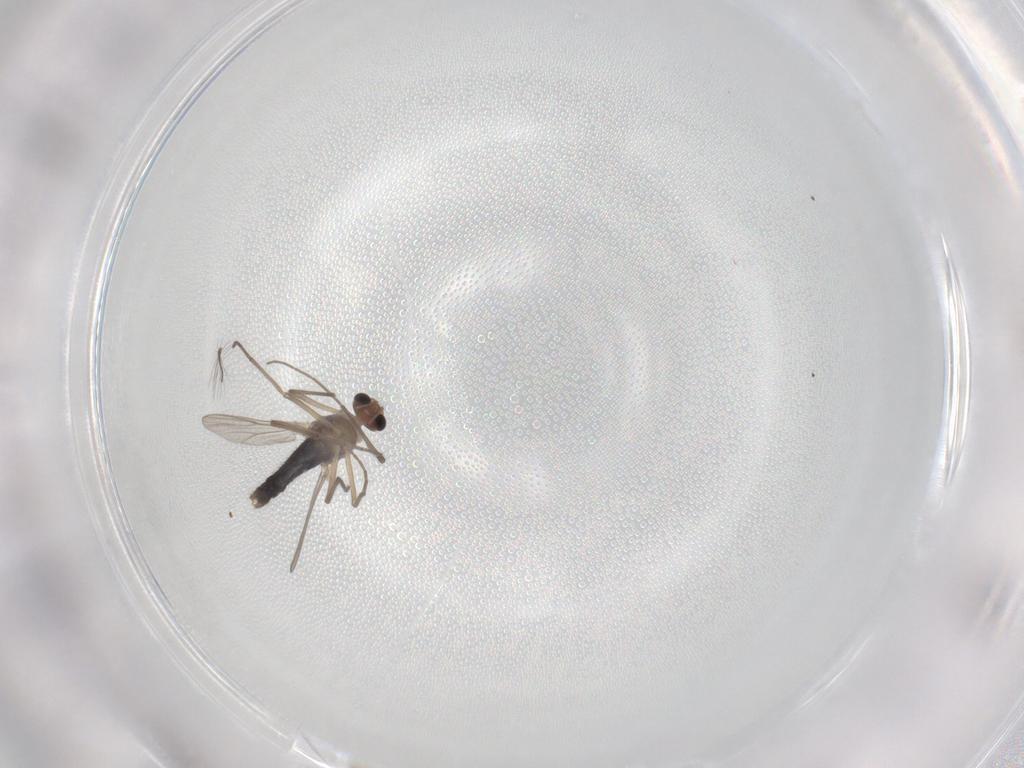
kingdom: Animalia
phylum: Arthropoda
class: Insecta
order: Diptera
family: Chironomidae
